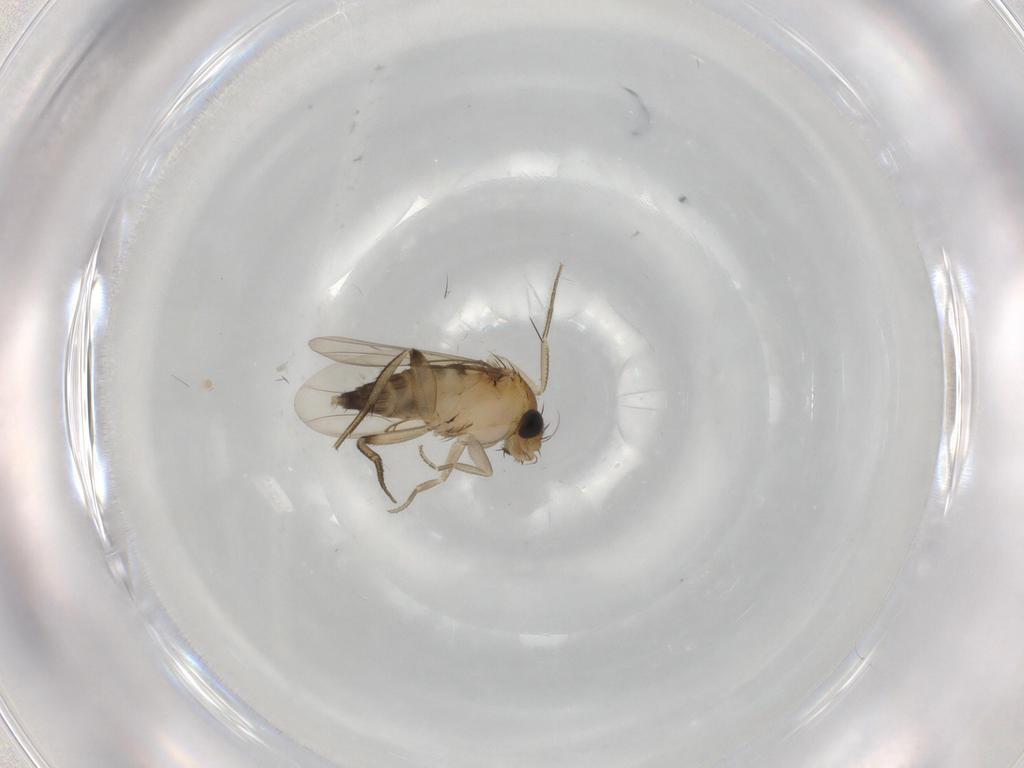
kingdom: Animalia
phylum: Arthropoda
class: Insecta
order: Diptera
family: Phoridae
